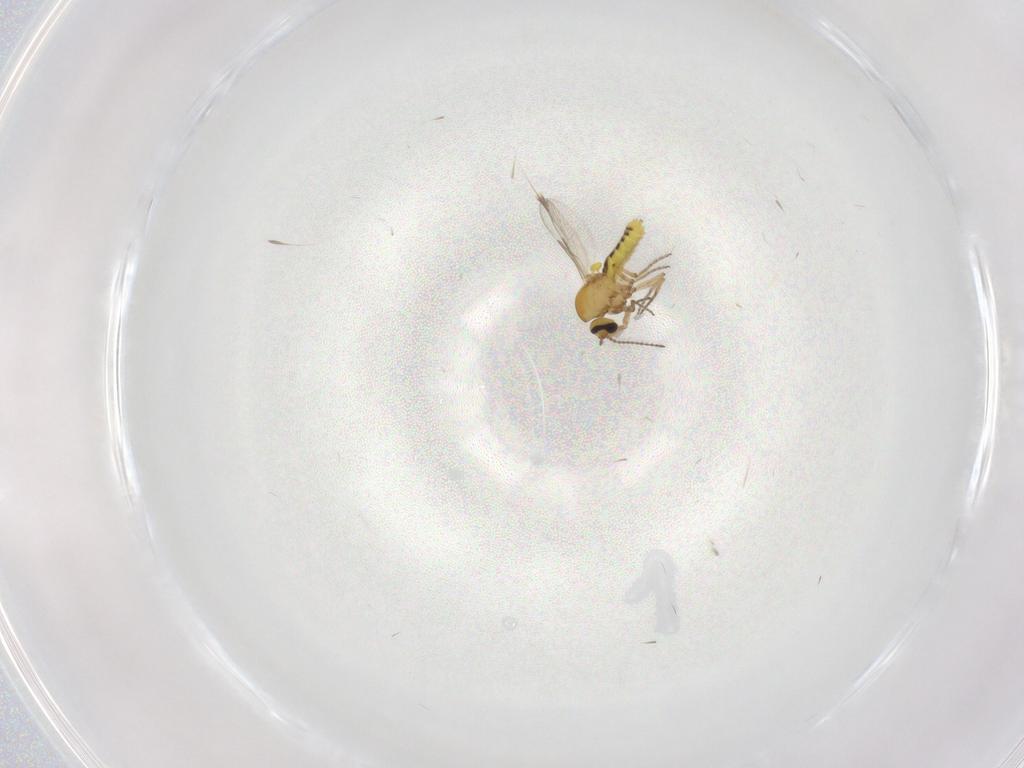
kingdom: Animalia
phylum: Arthropoda
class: Insecta
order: Diptera
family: Limoniidae
